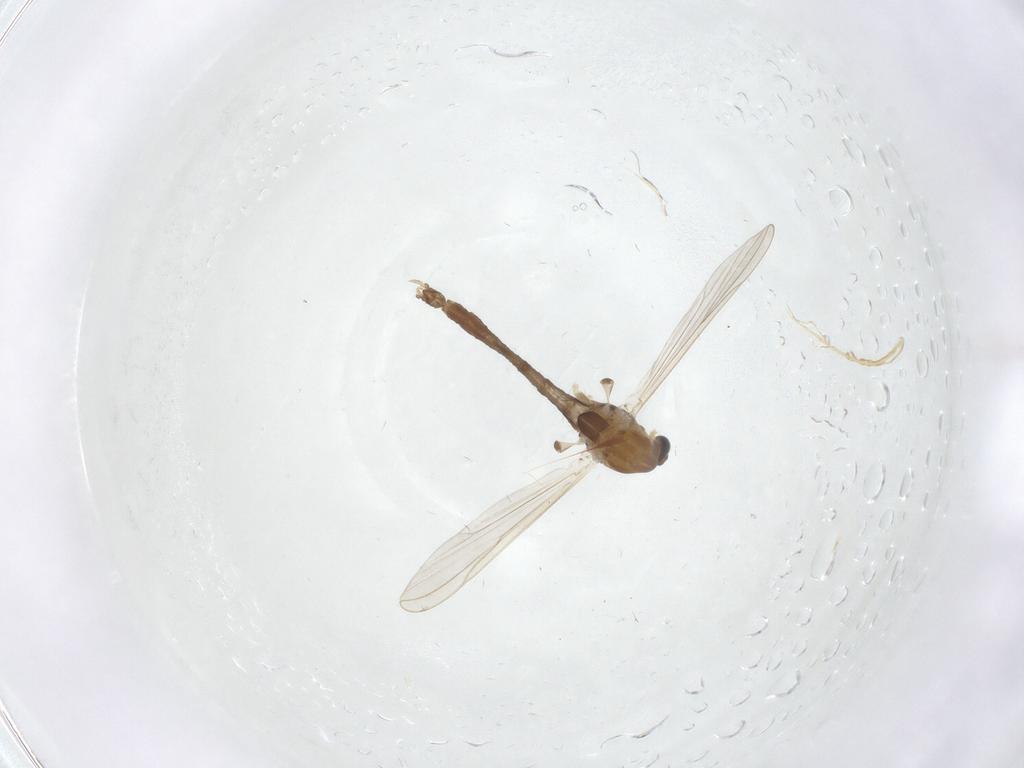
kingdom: Animalia
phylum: Arthropoda
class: Insecta
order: Diptera
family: Chironomidae
